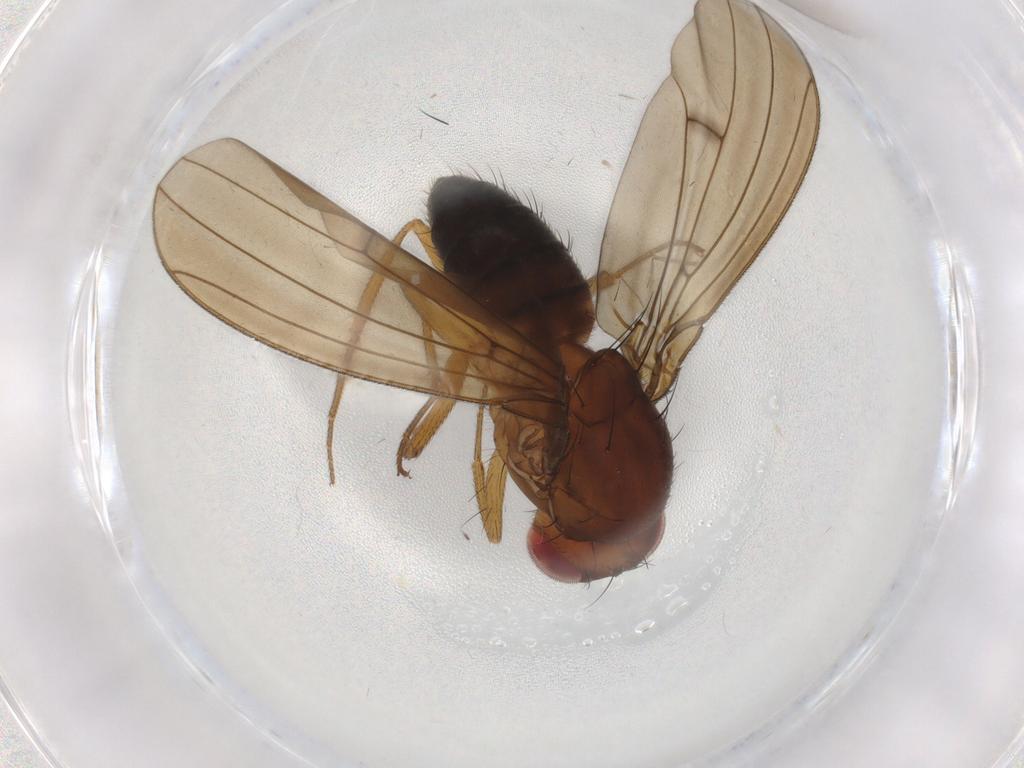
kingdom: Animalia
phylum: Arthropoda
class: Insecta
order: Diptera
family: Drosophilidae
